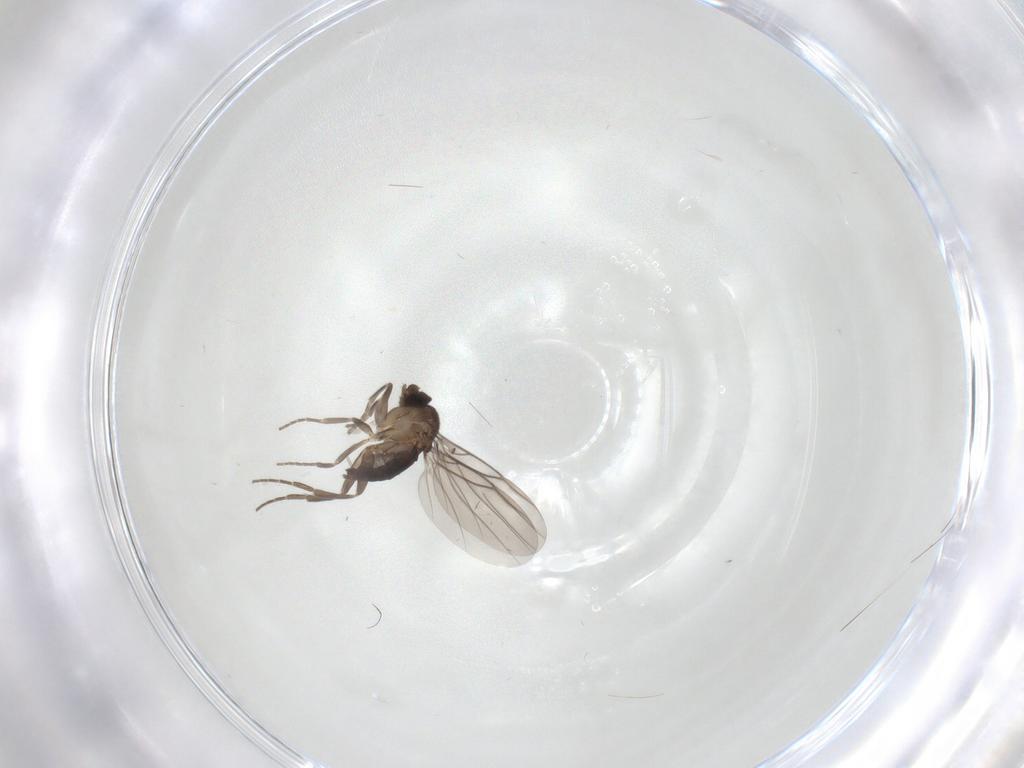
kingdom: Animalia
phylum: Arthropoda
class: Insecta
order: Diptera
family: Phoridae
